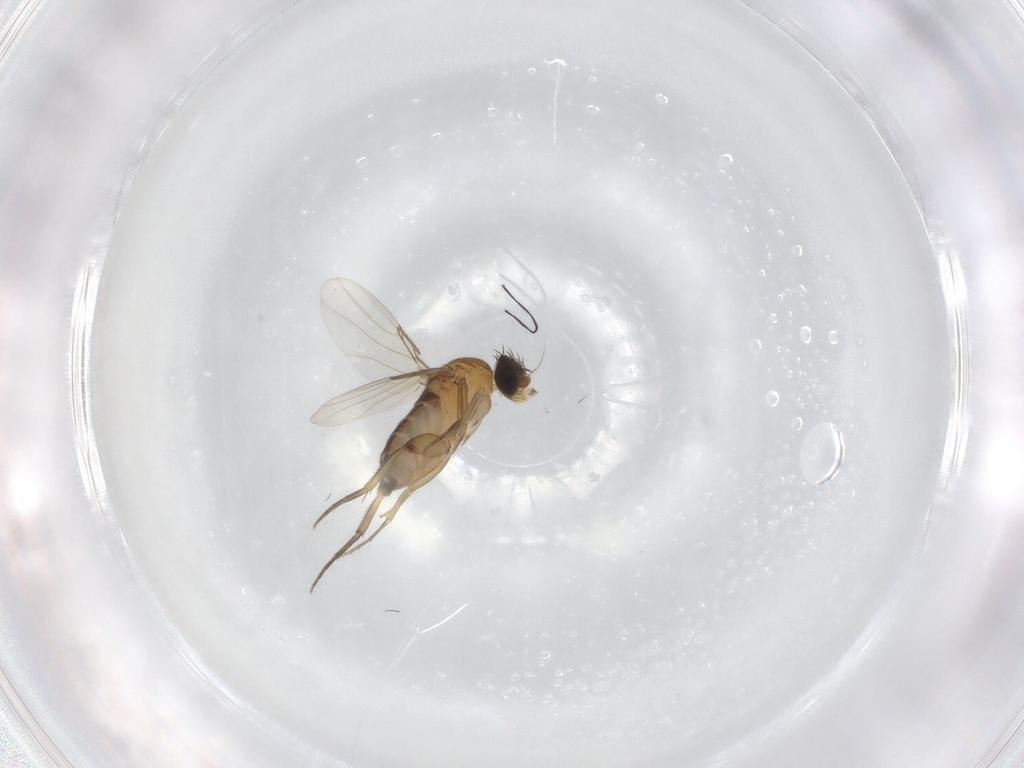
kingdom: Animalia
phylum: Arthropoda
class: Insecta
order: Diptera
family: Phoridae
